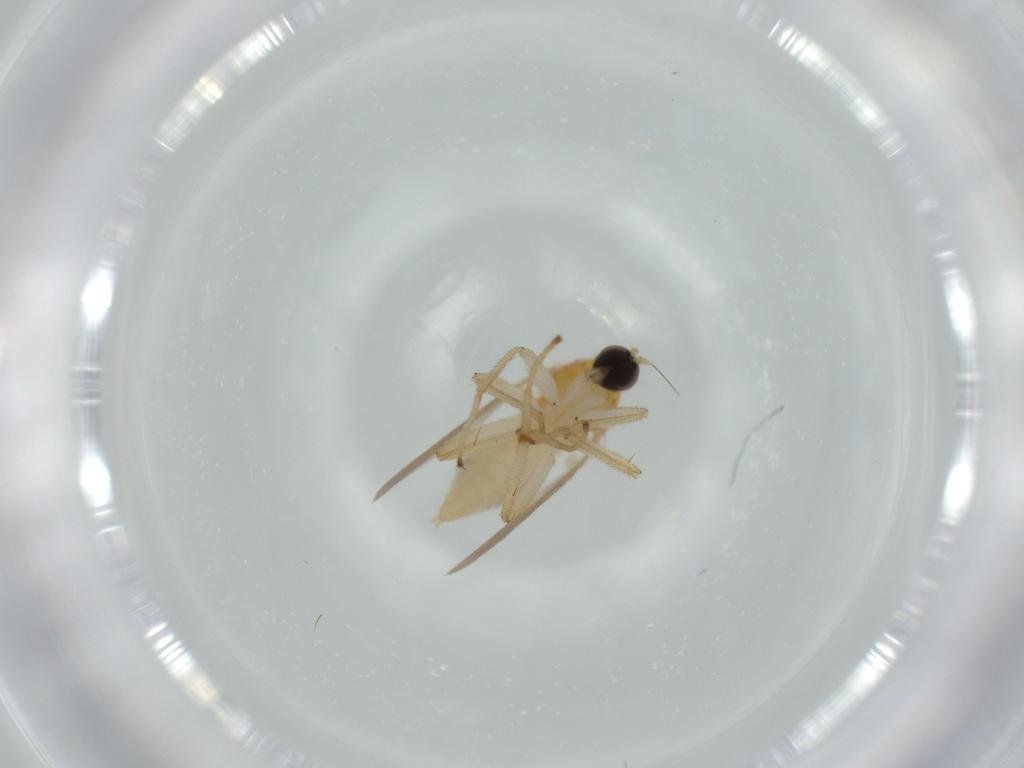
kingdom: Animalia
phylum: Arthropoda
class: Insecta
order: Diptera
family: Hybotidae
